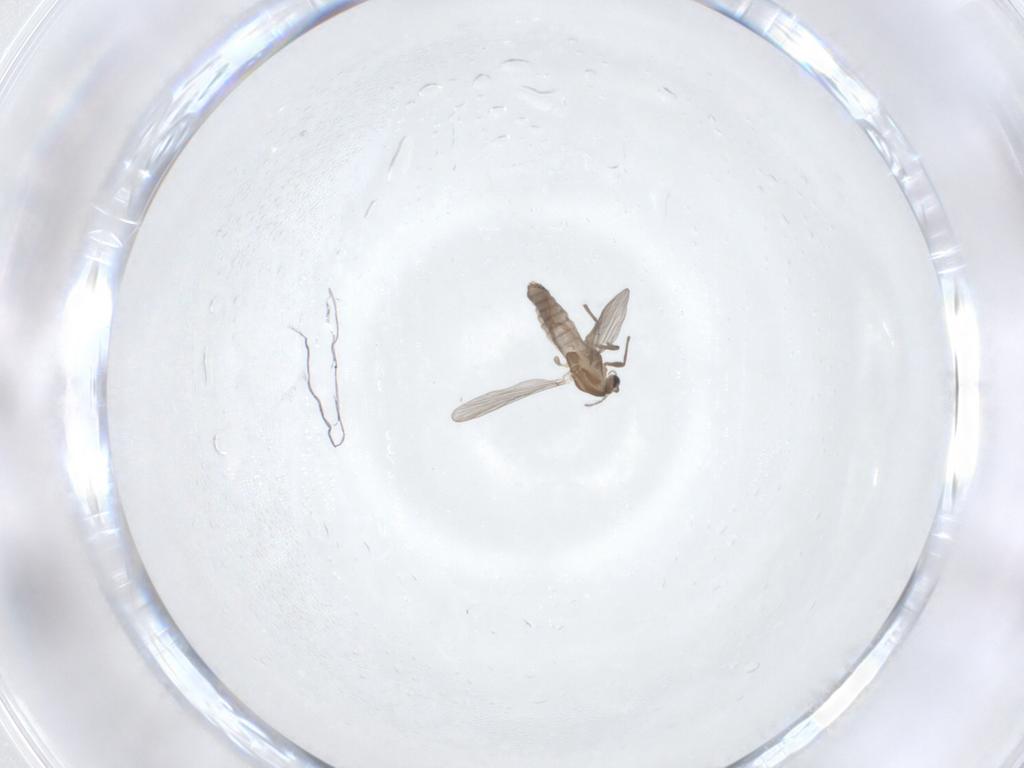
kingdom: Animalia
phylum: Arthropoda
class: Insecta
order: Diptera
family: Chironomidae
